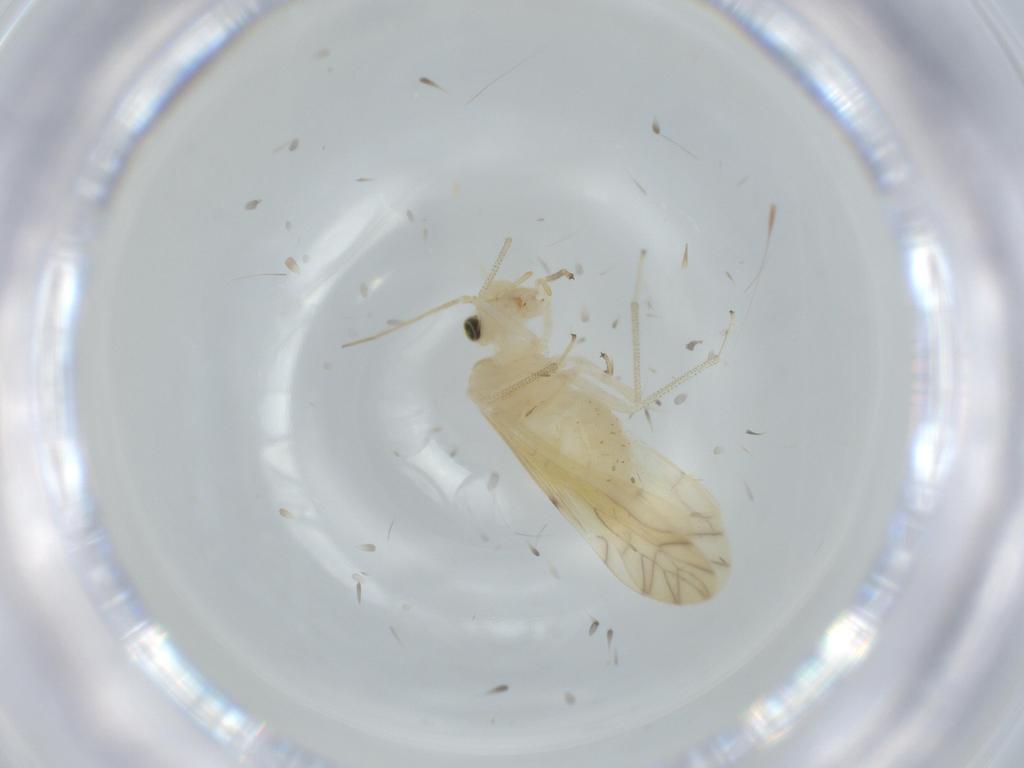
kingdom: Animalia
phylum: Arthropoda
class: Insecta
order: Psocodea
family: Caeciliusidae
